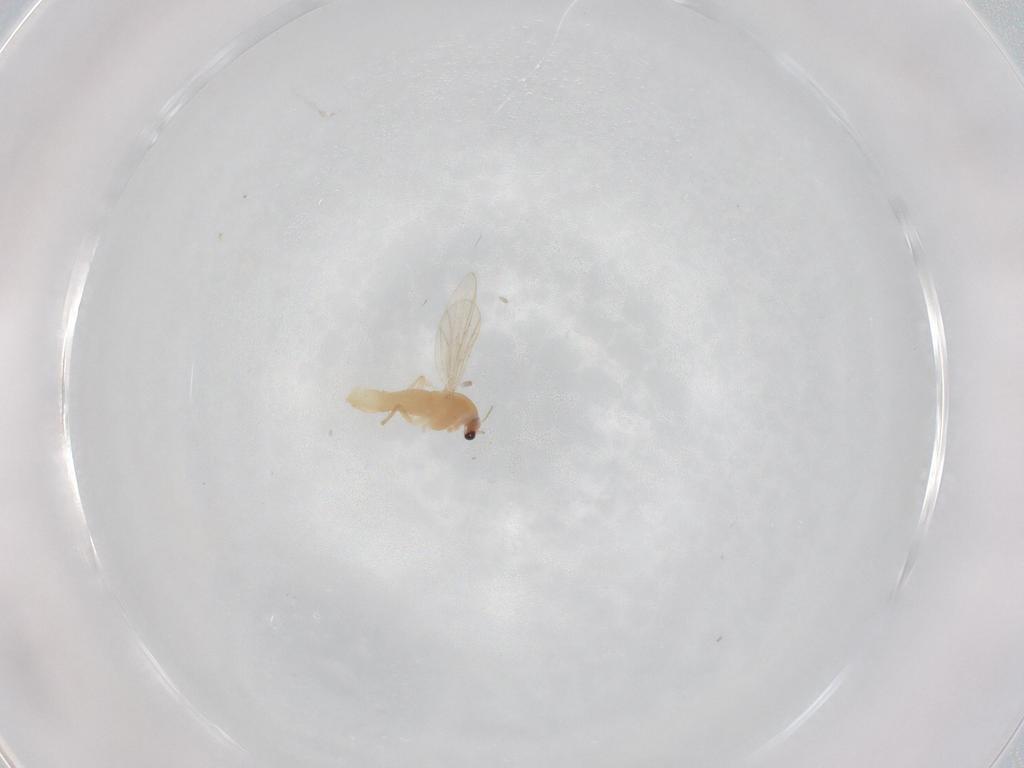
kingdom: Animalia
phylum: Arthropoda
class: Insecta
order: Diptera
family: Chironomidae
